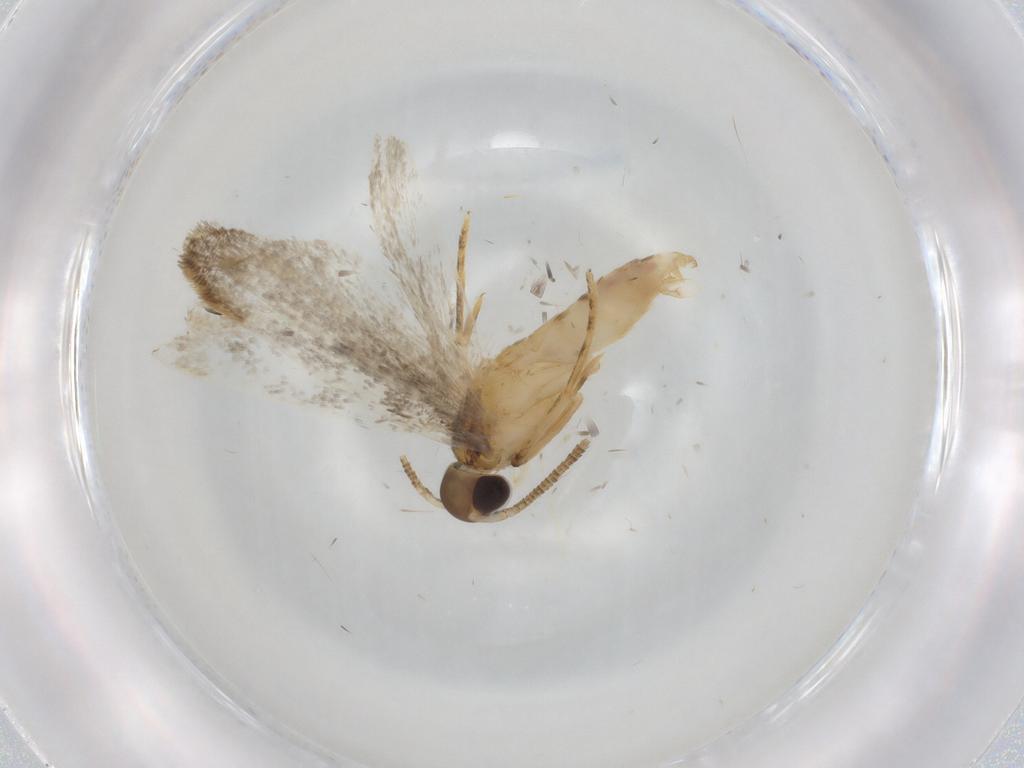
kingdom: Animalia
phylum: Arthropoda
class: Insecta
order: Lepidoptera
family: Autostichidae
